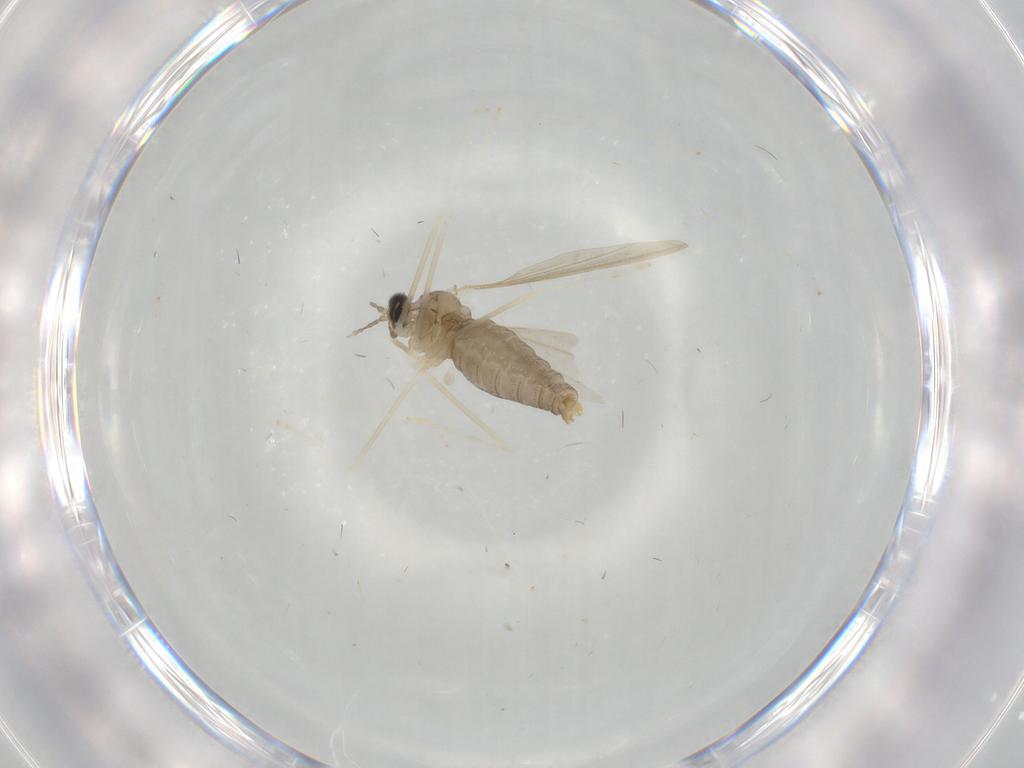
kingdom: Animalia
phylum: Arthropoda
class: Insecta
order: Diptera
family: Cecidomyiidae
